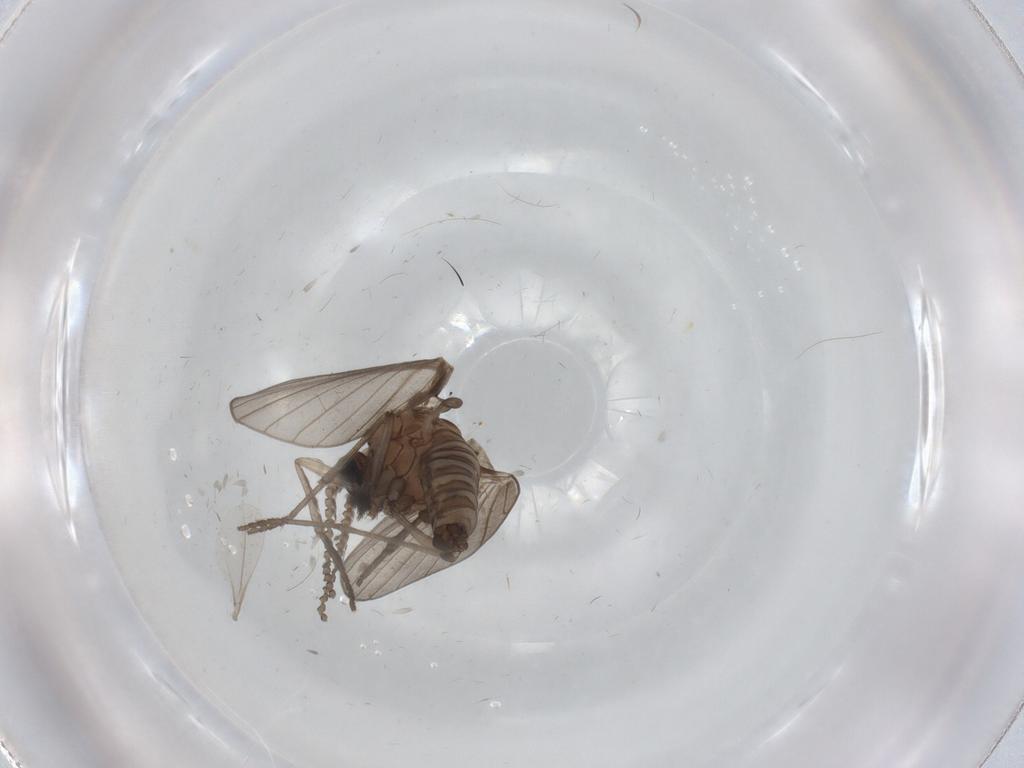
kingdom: Animalia
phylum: Arthropoda
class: Insecta
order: Diptera
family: Psychodidae
